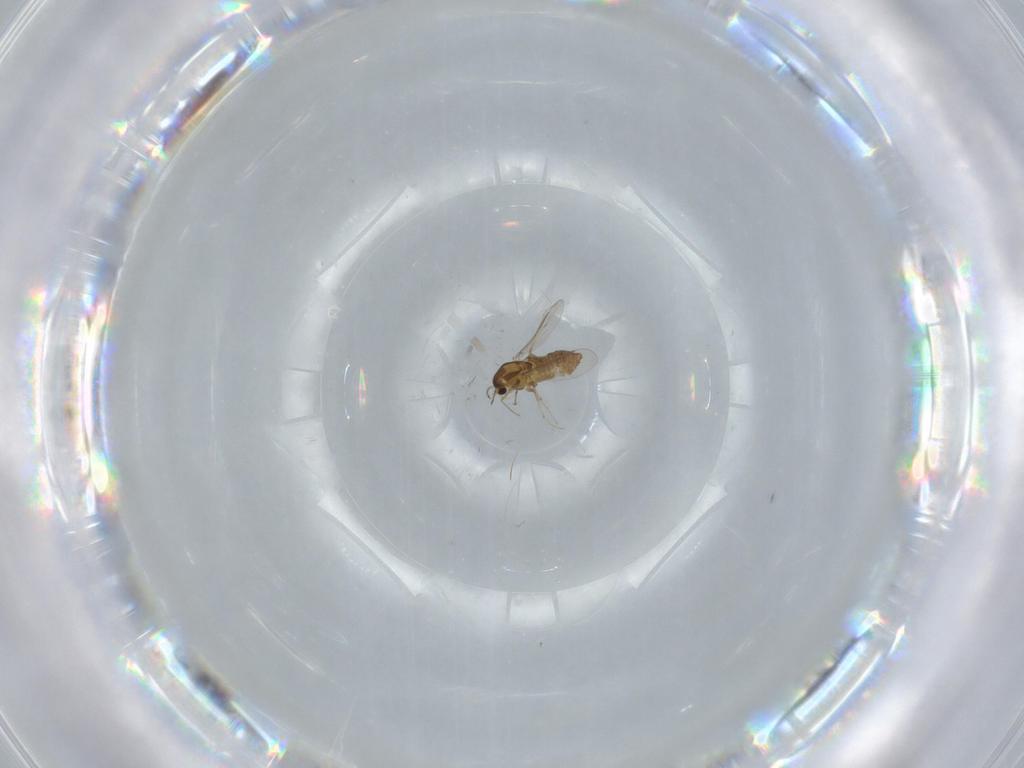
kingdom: Animalia
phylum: Arthropoda
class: Insecta
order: Diptera
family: Chironomidae
